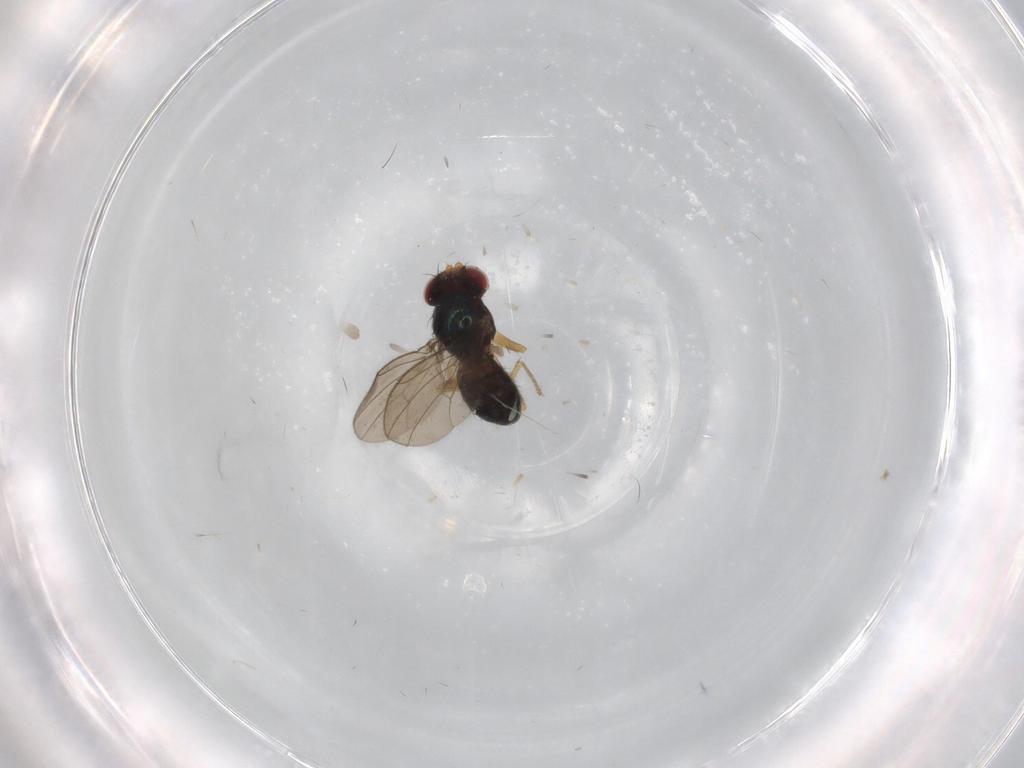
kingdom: Animalia
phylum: Arthropoda
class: Insecta
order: Diptera
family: Drosophilidae
